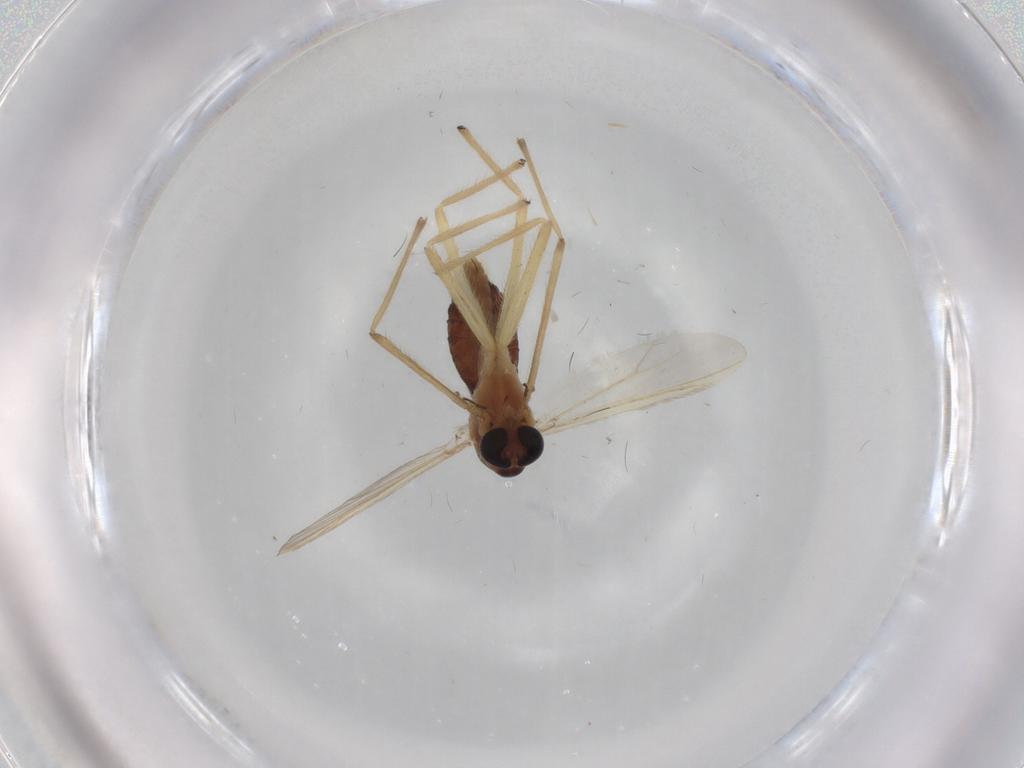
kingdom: Animalia
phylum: Arthropoda
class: Insecta
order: Diptera
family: Chironomidae
